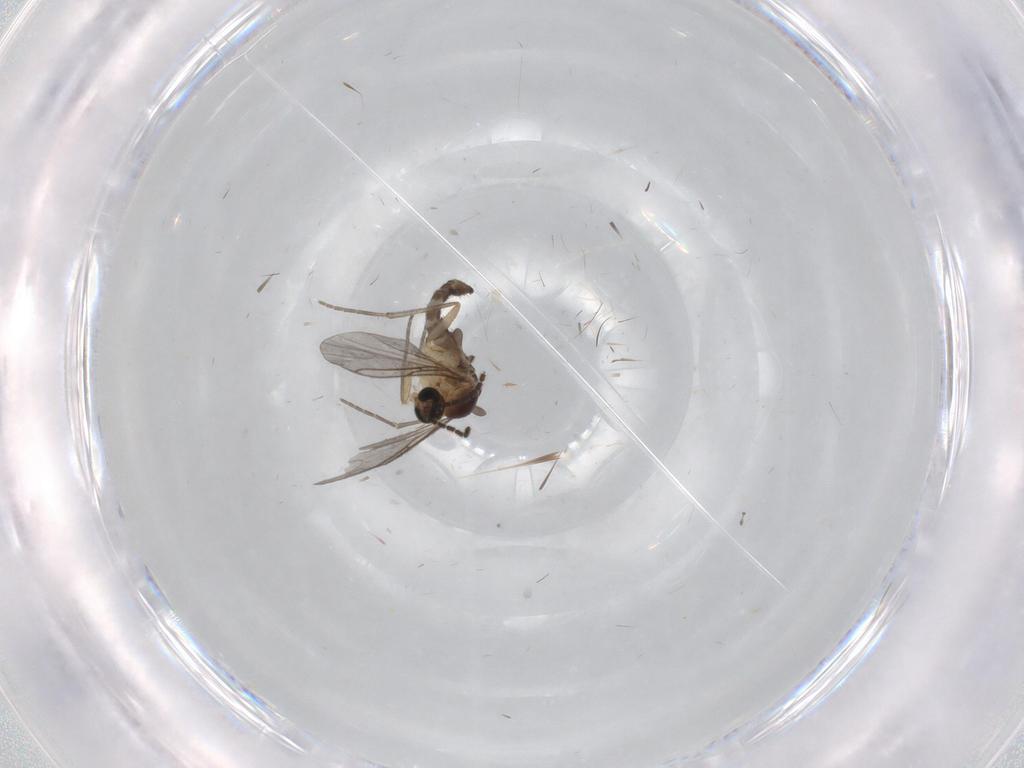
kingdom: Animalia
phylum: Arthropoda
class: Insecta
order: Diptera
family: Sciaridae
